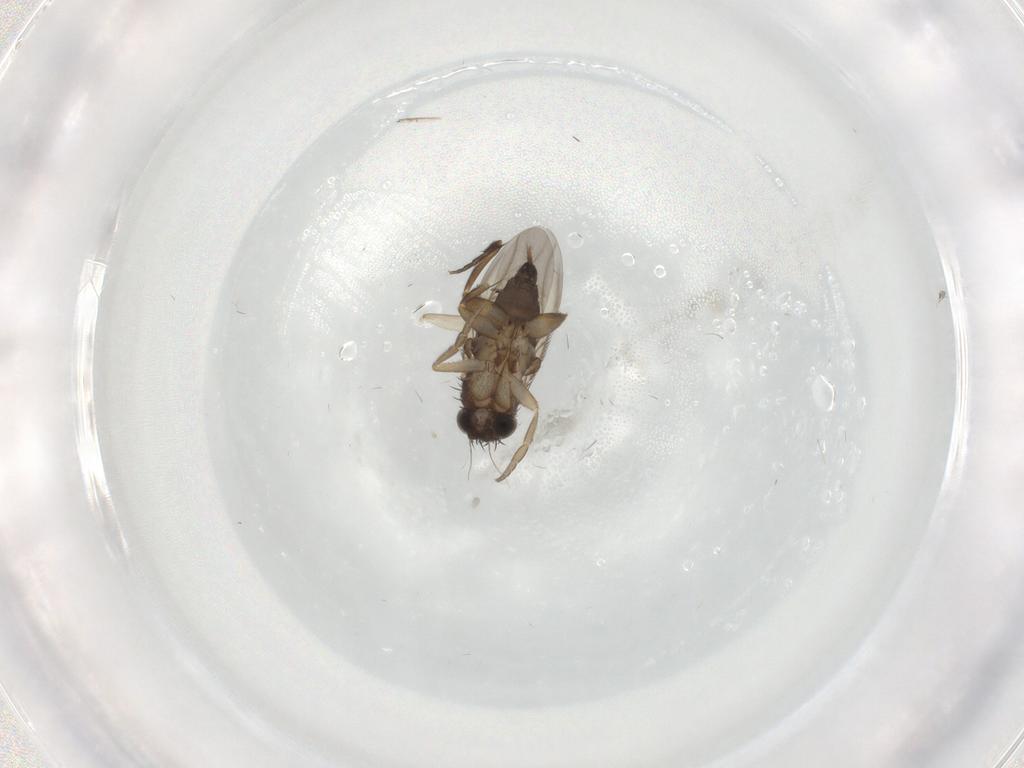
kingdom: Animalia
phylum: Arthropoda
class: Insecta
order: Diptera
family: Phoridae
